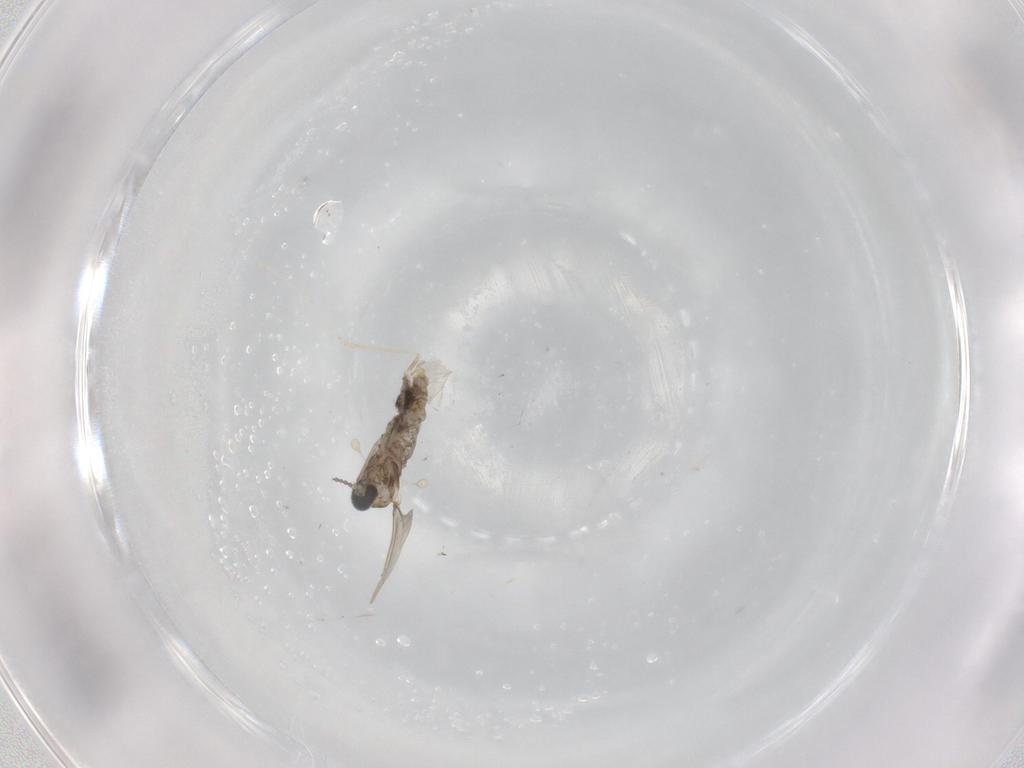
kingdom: Animalia
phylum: Arthropoda
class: Insecta
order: Diptera
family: Cecidomyiidae
